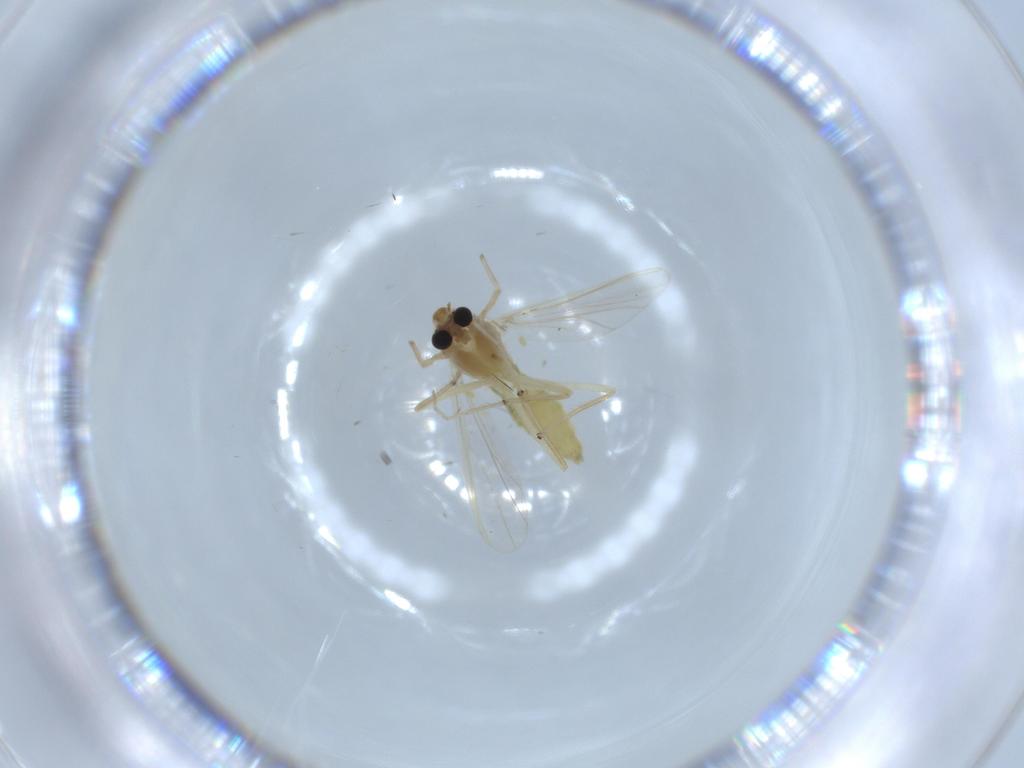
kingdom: Animalia
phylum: Arthropoda
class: Insecta
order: Diptera
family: Chironomidae
